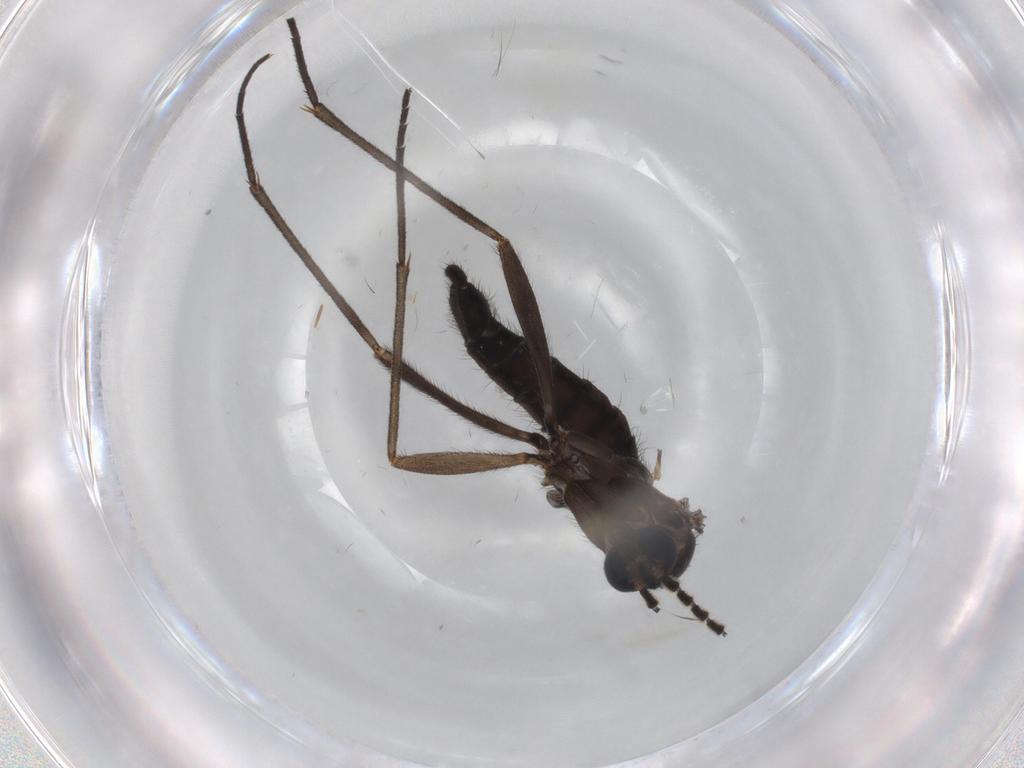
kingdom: Animalia
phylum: Arthropoda
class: Insecta
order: Diptera
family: Sciaridae
